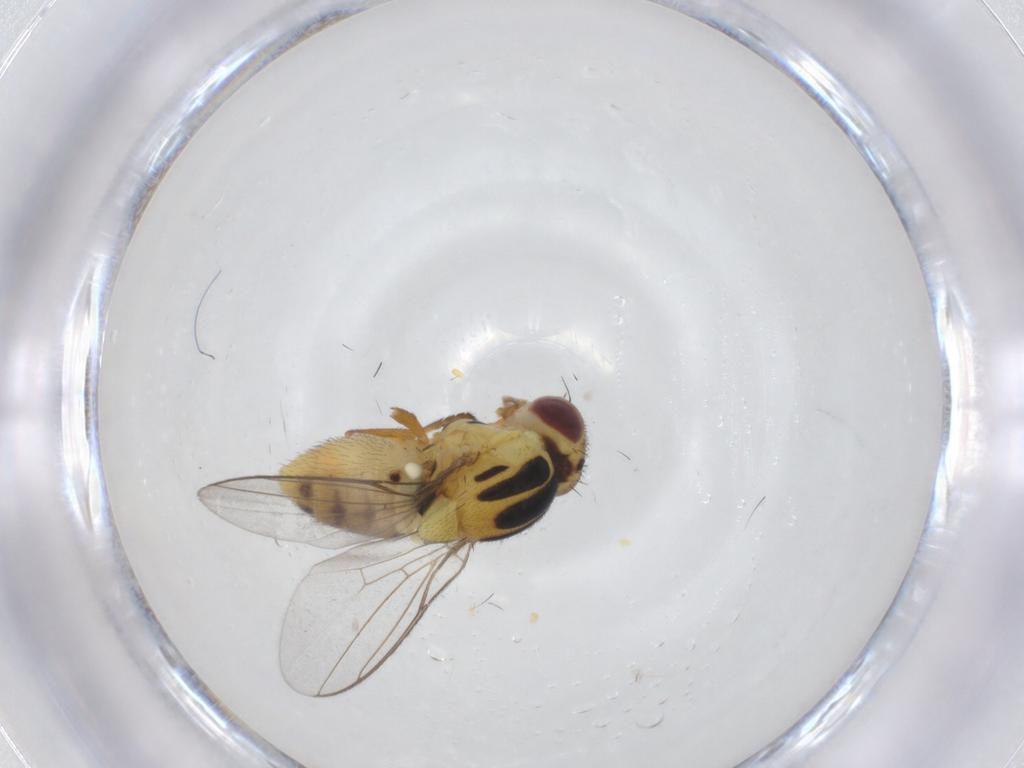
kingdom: Animalia
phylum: Arthropoda
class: Insecta
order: Diptera
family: Chloropidae
